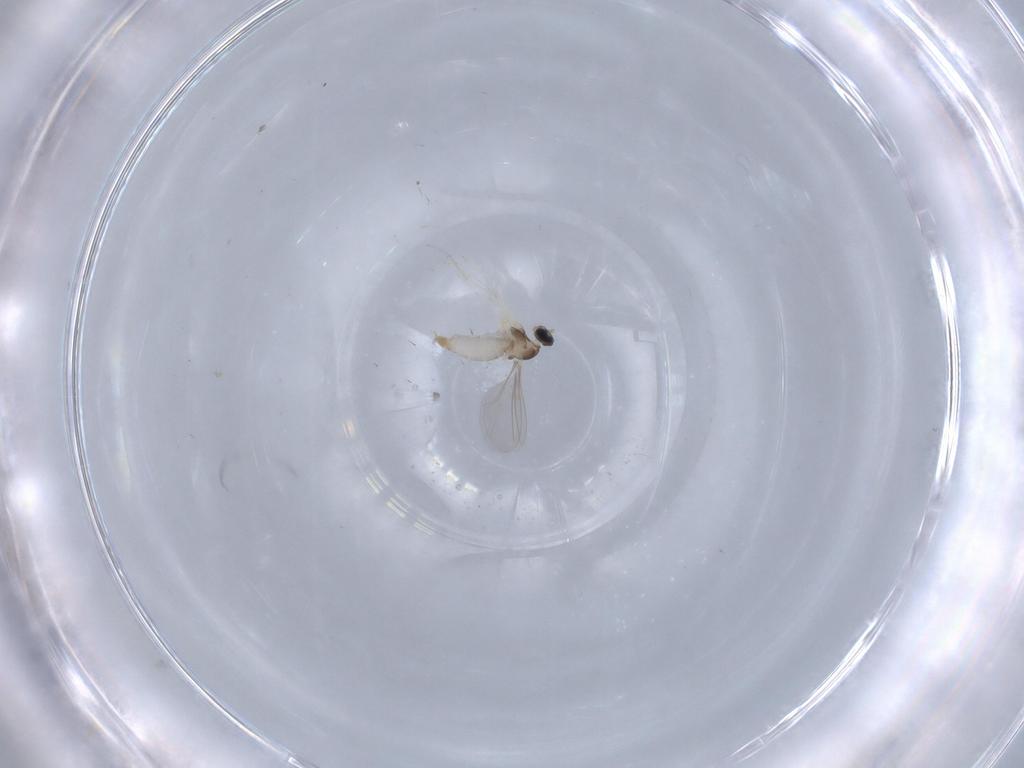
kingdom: Animalia
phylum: Arthropoda
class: Insecta
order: Diptera
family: Cecidomyiidae
